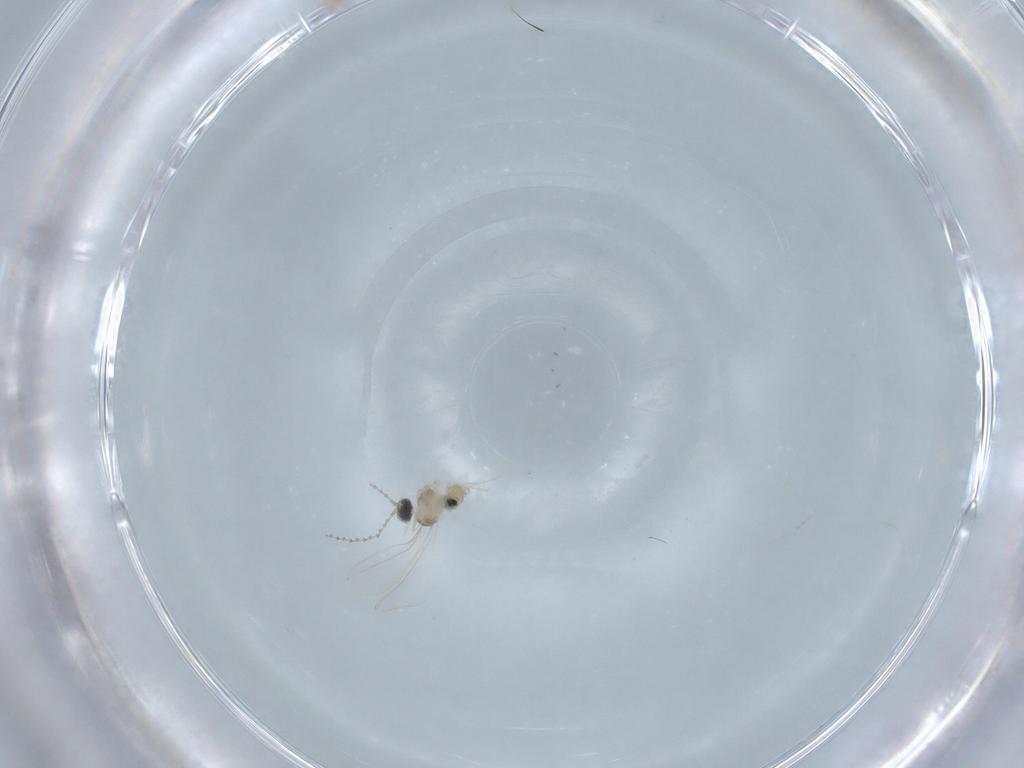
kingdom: Animalia
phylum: Arthropoda
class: Insecta
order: Diptera
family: Cecidomyiidae
